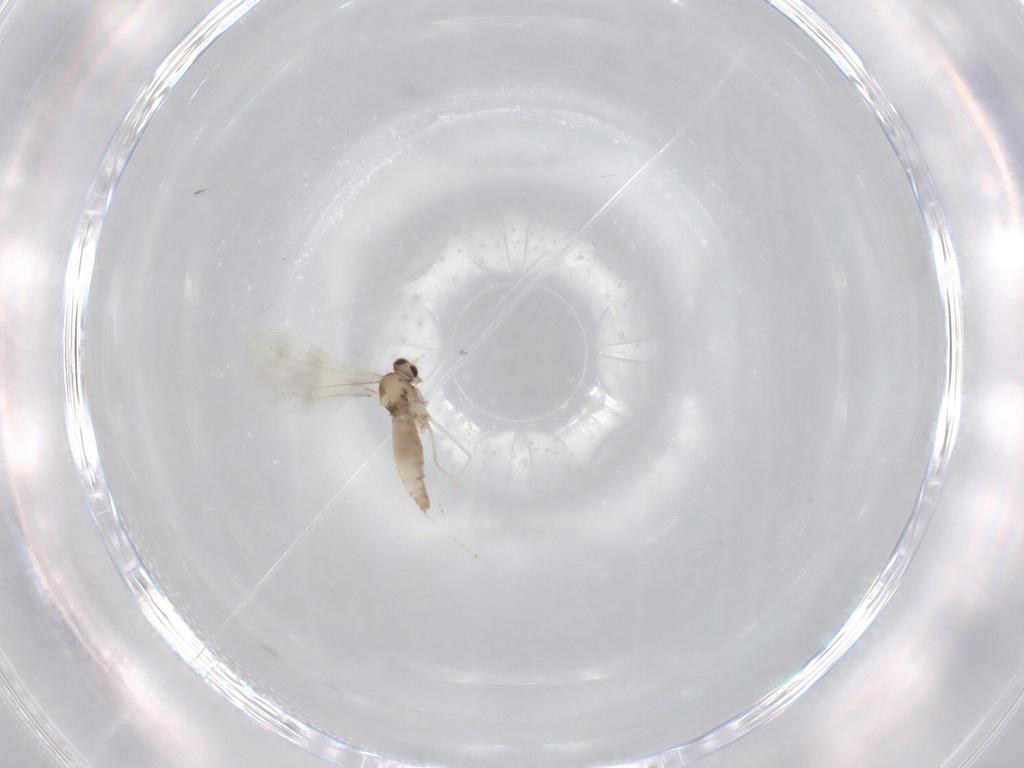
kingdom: Animalia
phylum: Arthropoda
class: Insecta
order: Diptera
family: Cecidomyiidae
